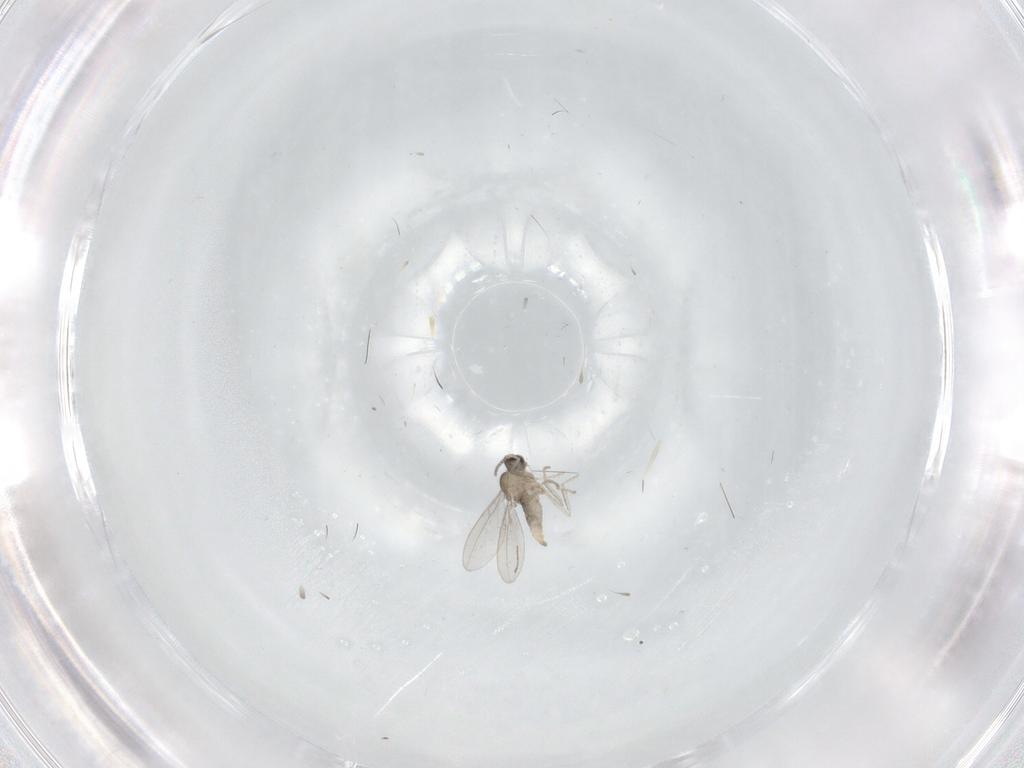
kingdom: Animalia
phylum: Arthropoda
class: Insecta
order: Diptera
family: Cecidomyiidae
